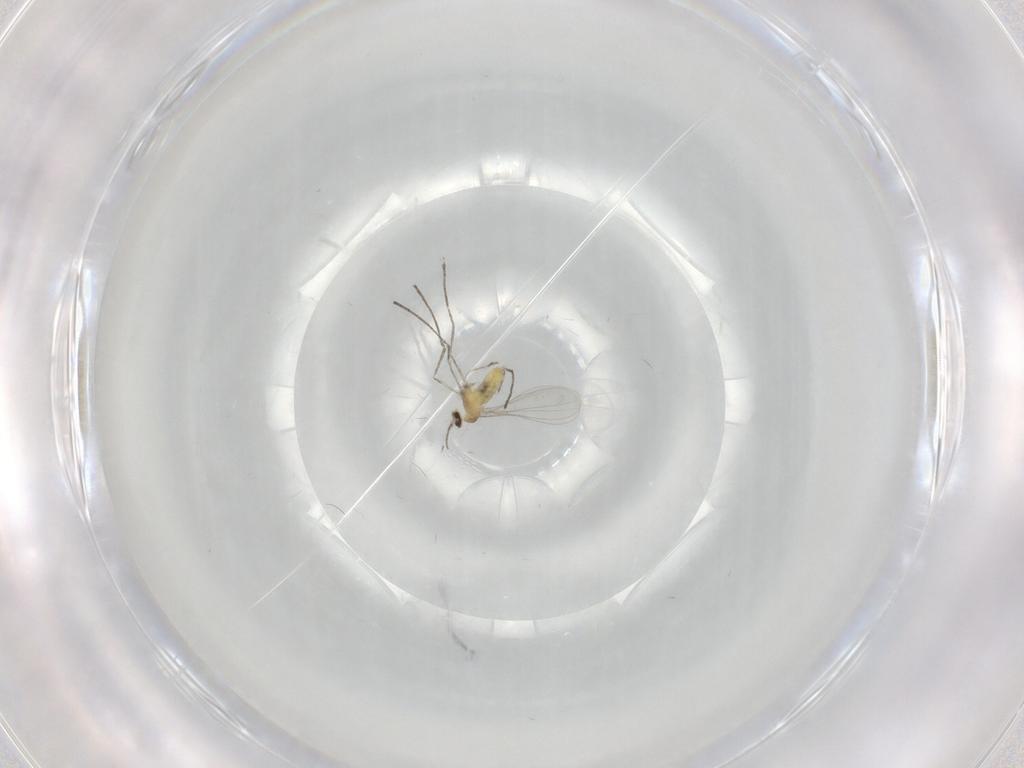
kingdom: Animalia
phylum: Arthropoda
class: Insecta
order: Diptera
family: Cecidomyiidae
